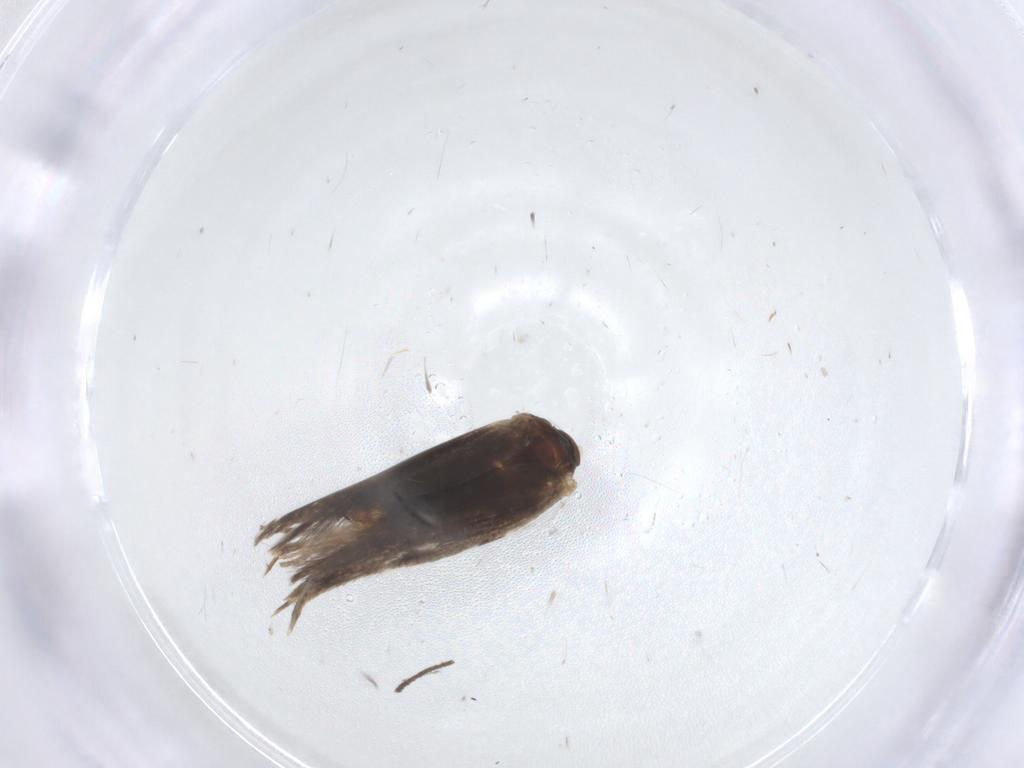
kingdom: Animalia
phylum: Arthropoda
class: Insecta
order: Lepidoptera
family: Elachistidae
